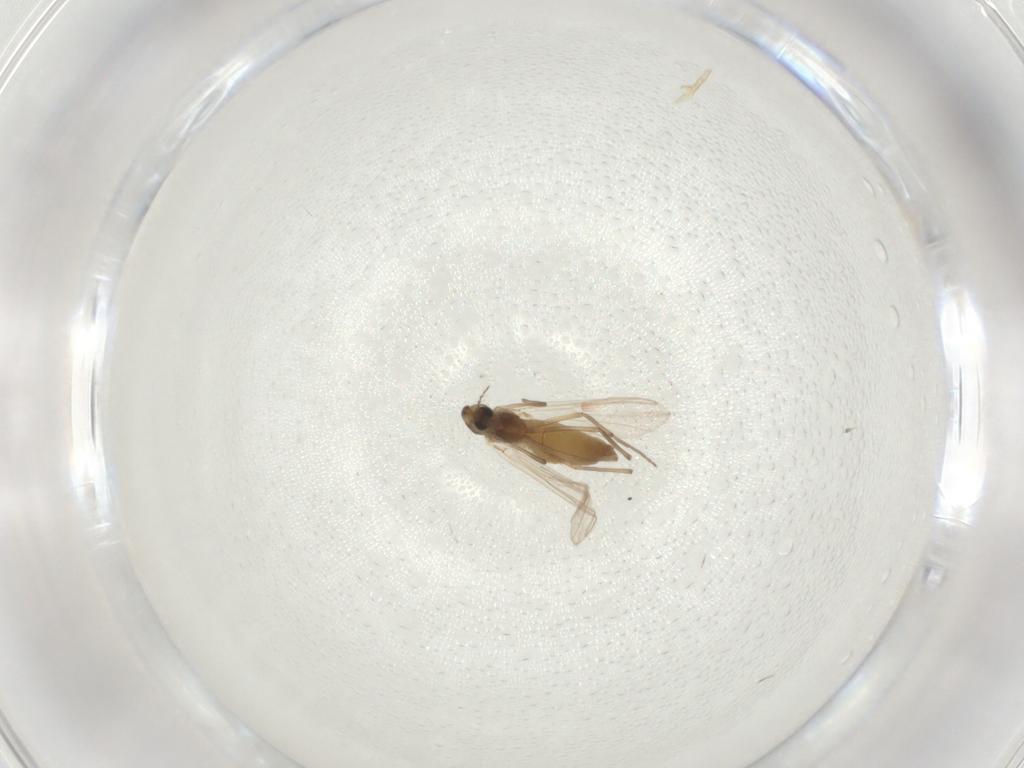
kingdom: Animalia
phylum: Arthropoda
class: Insecta
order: Diptera
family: Chironomidae
